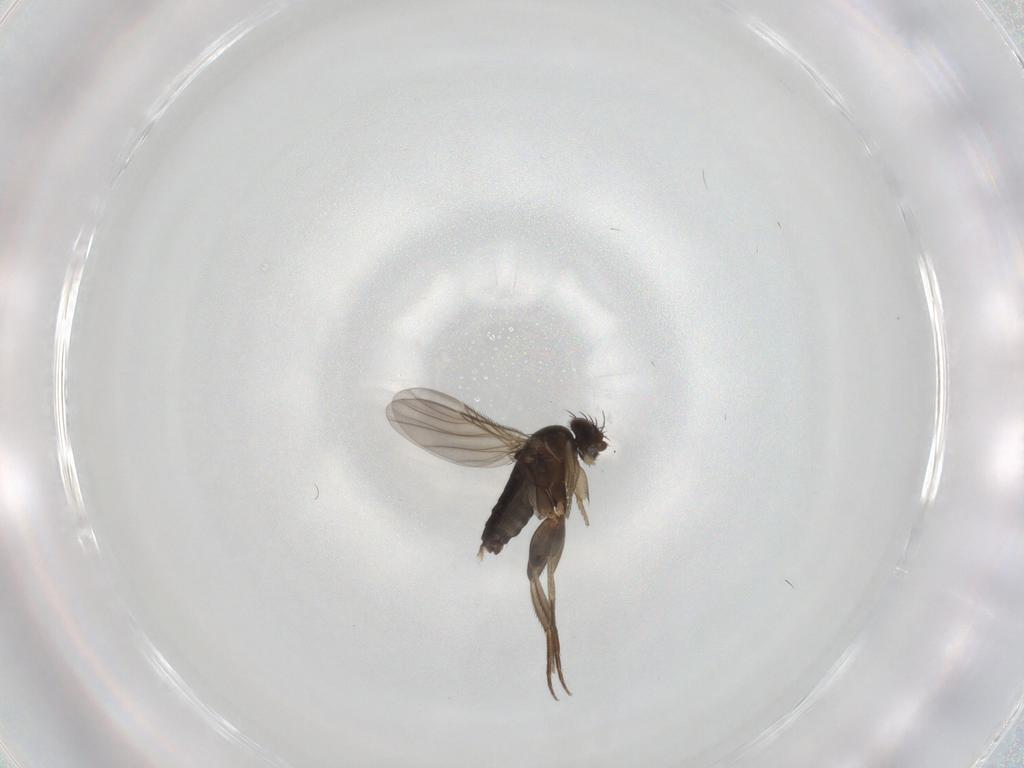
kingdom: Animalia
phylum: Arthropoda
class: Insecta
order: Diptera
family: Phoridae
